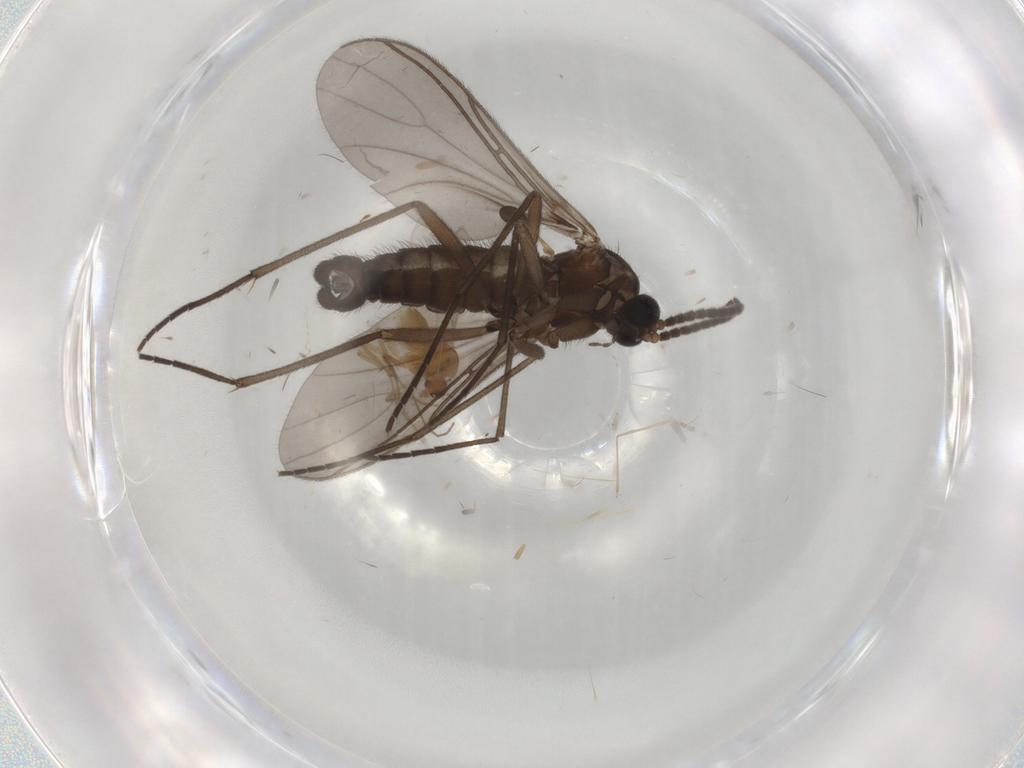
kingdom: Animalia
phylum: Arthropoda
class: Insecta
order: Diptera
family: Sciaridae
